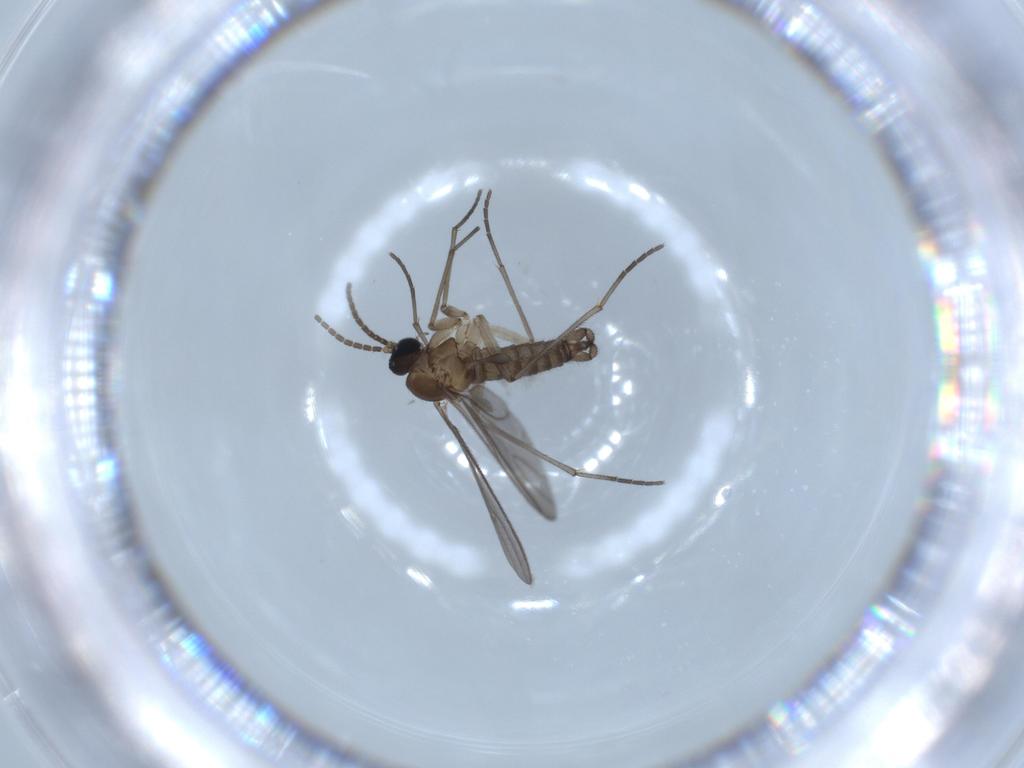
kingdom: Animalia
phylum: Arthropoda
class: Insecta
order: Diptera
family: Sciaridae
